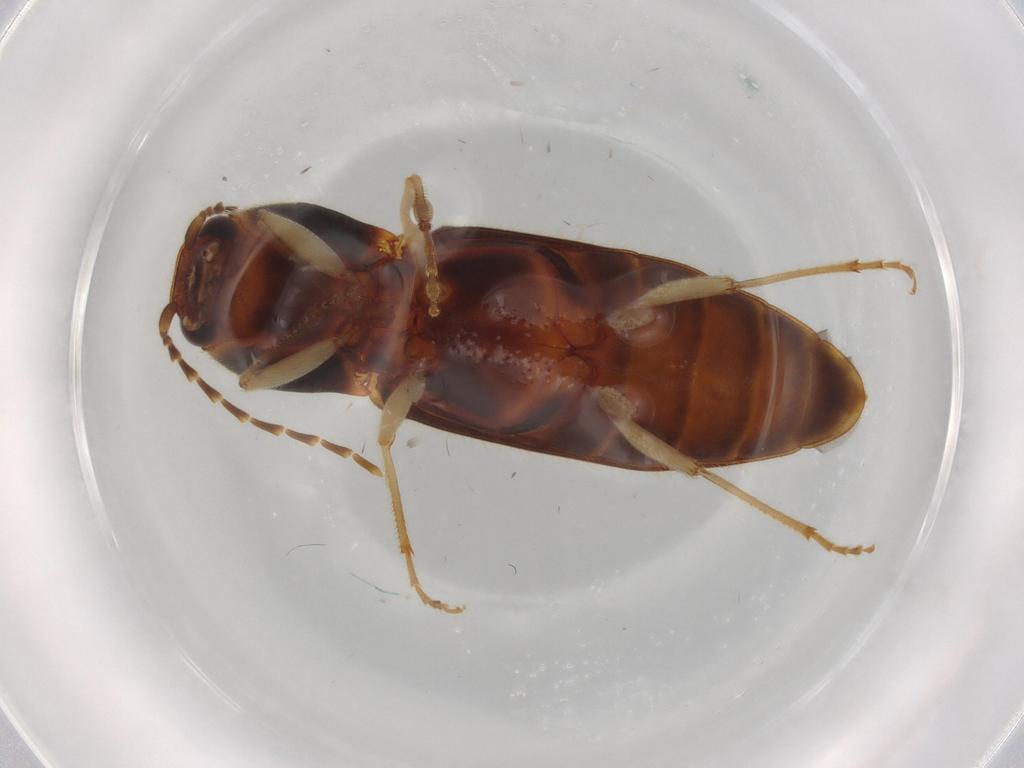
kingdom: Animalia
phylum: Arthropoda
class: Insecta
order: Coleoptera
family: Elateridae
